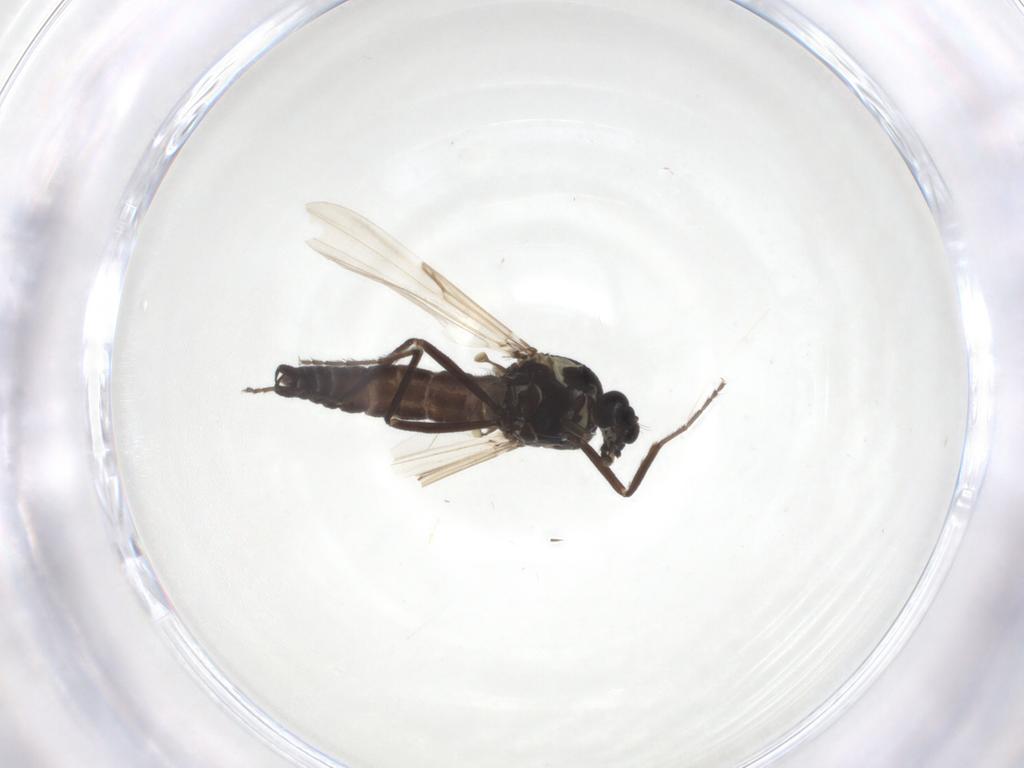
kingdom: Animalia
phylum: Arthropoda
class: Insecta
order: Diptera
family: Ceratopogonidae
